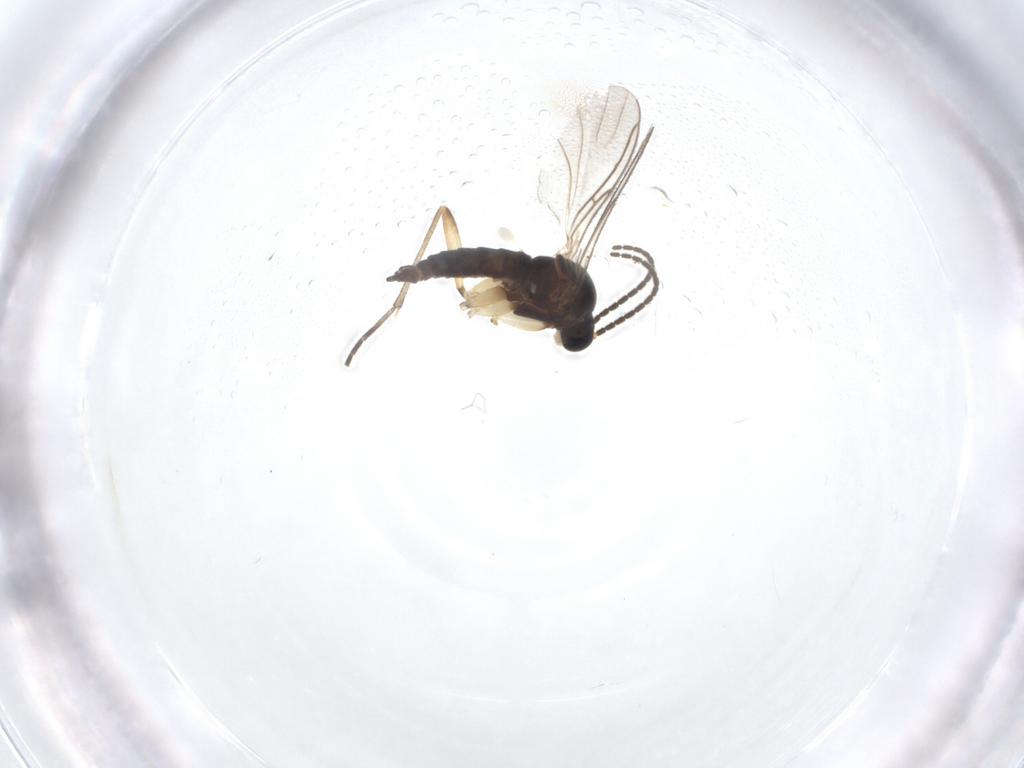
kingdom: Animalia
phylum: Arthropoda
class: Insecta
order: Diptera
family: Sciaridae
